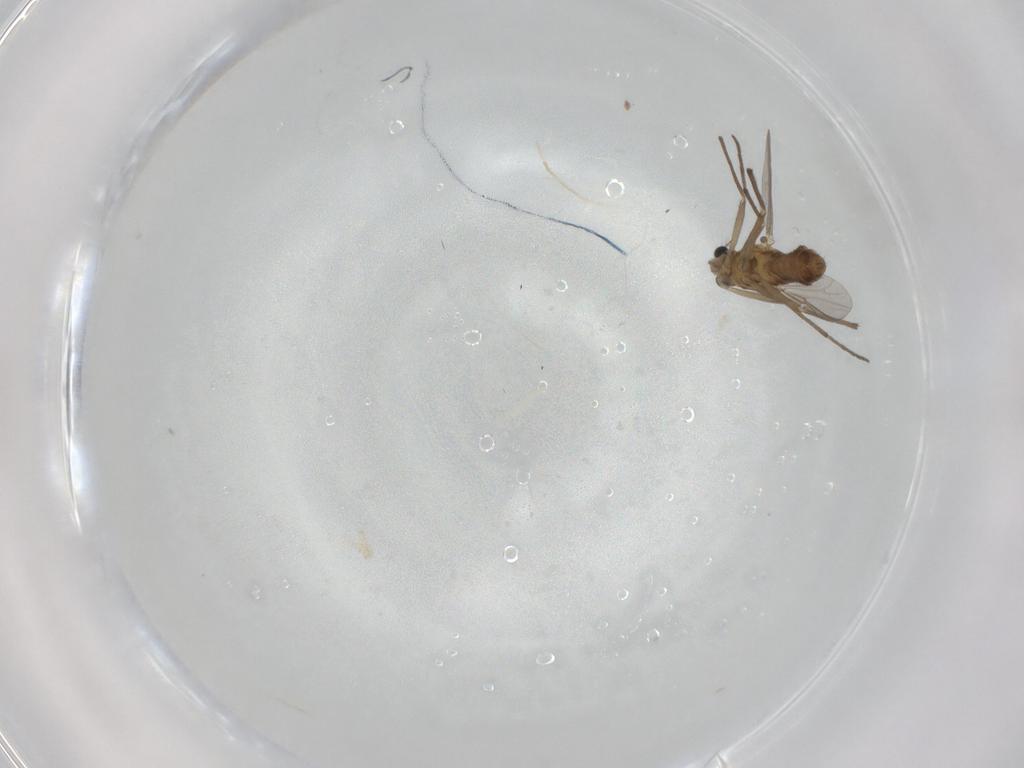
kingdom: Animalia
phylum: Arthropoda
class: Insecta
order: Diptera
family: Chironomidae
